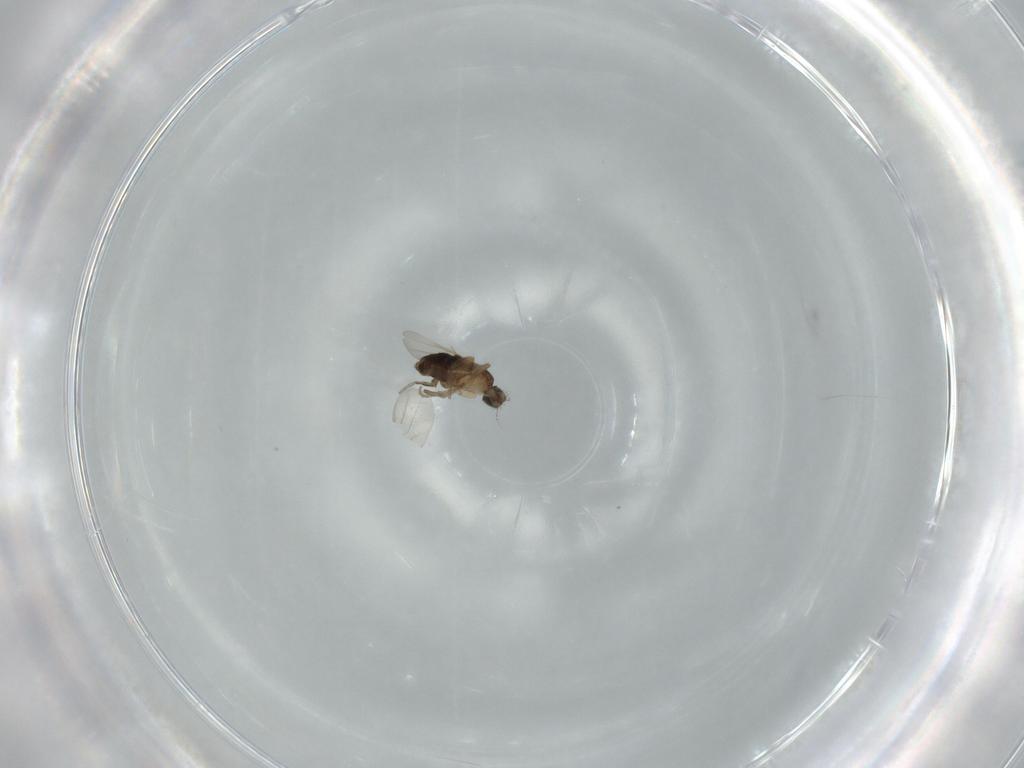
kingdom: Animalia
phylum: Arthropoda
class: Insecta
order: Diptera
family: Phoridae
